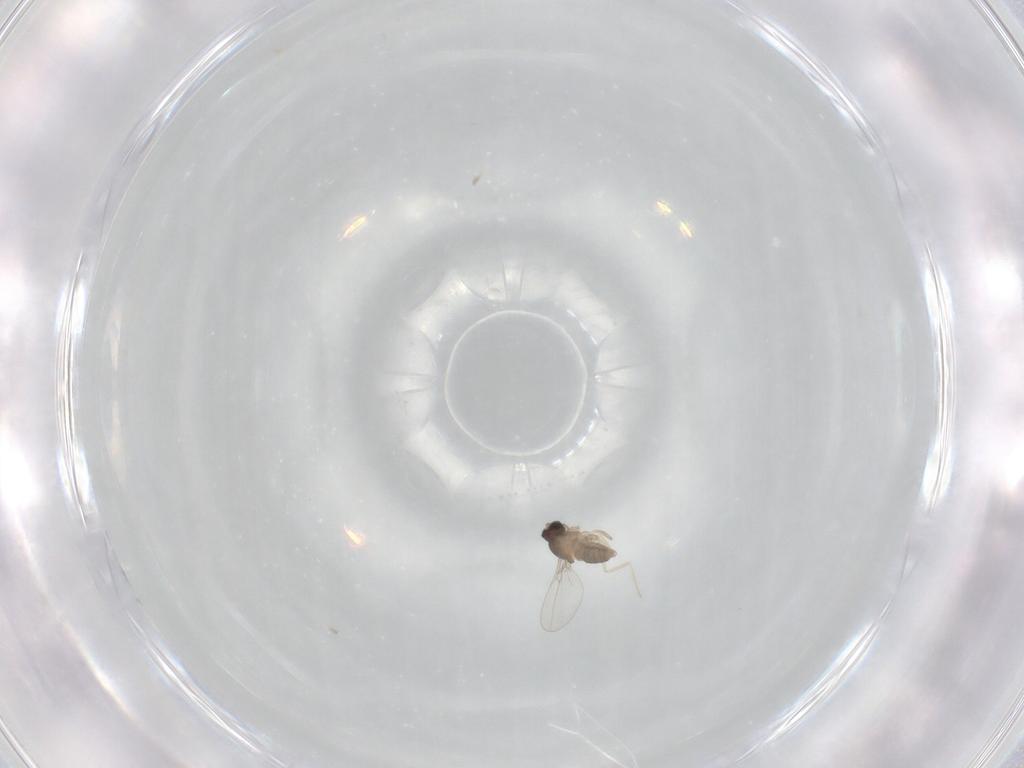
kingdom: Animalia
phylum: Arthropoda
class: Insecta
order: Diptera
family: Cecidomyiidae
